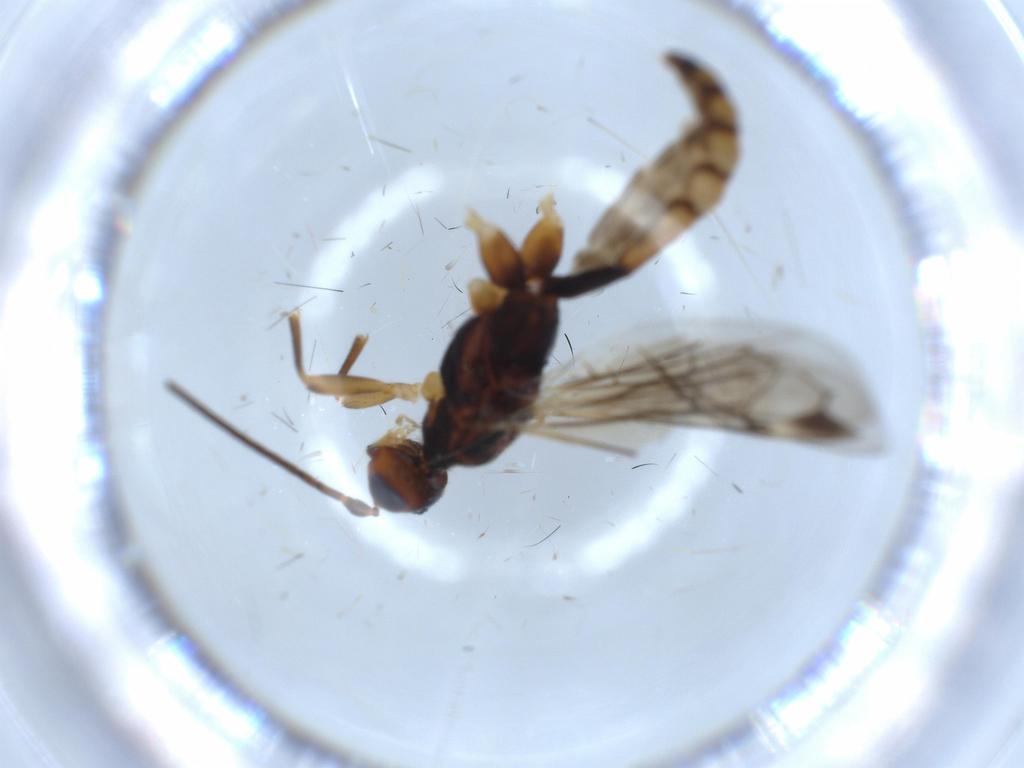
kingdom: Animalia
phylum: Arthropoda
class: Insecta
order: Hymenoptera
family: Braconidae
